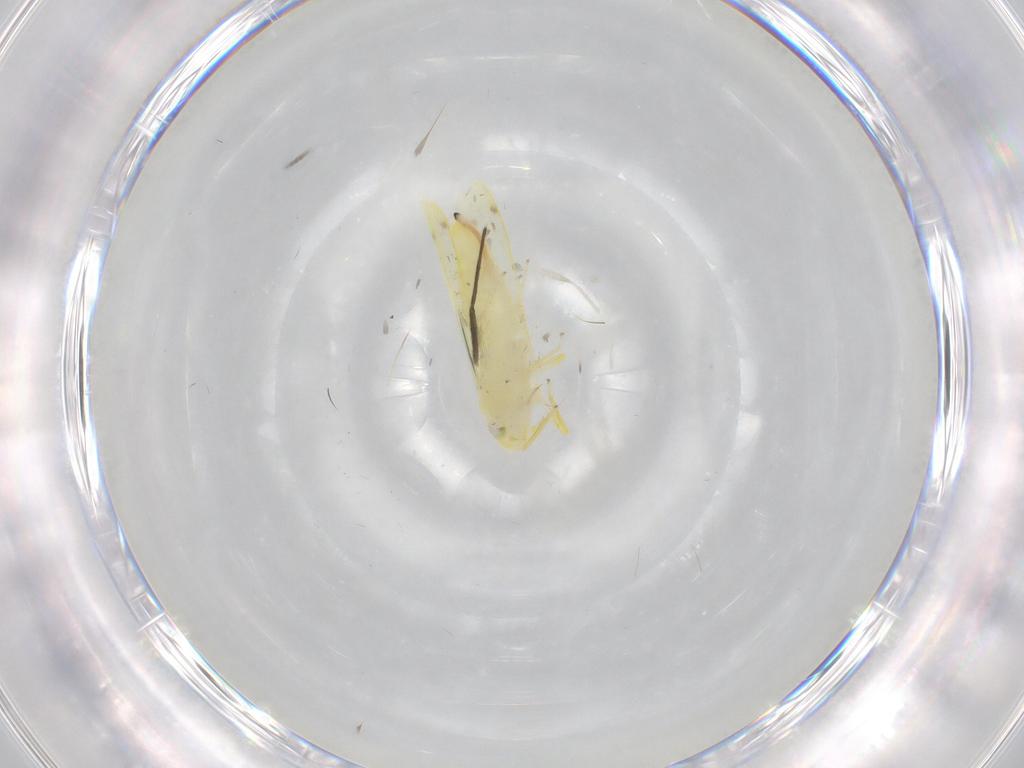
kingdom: Animalia
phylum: Arthropoda
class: Insecta
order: Hemiptera
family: Cicadellidae
